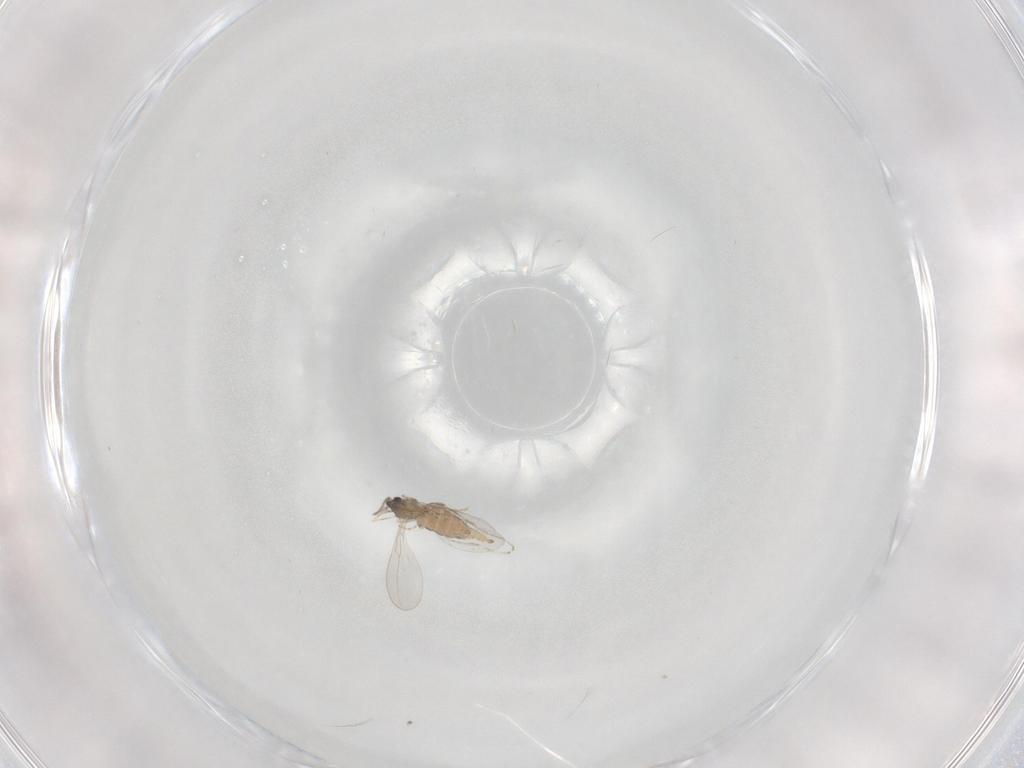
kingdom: Animalia
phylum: Arthropoda
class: Insecta
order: Diptera
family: Cecidomyiidae
